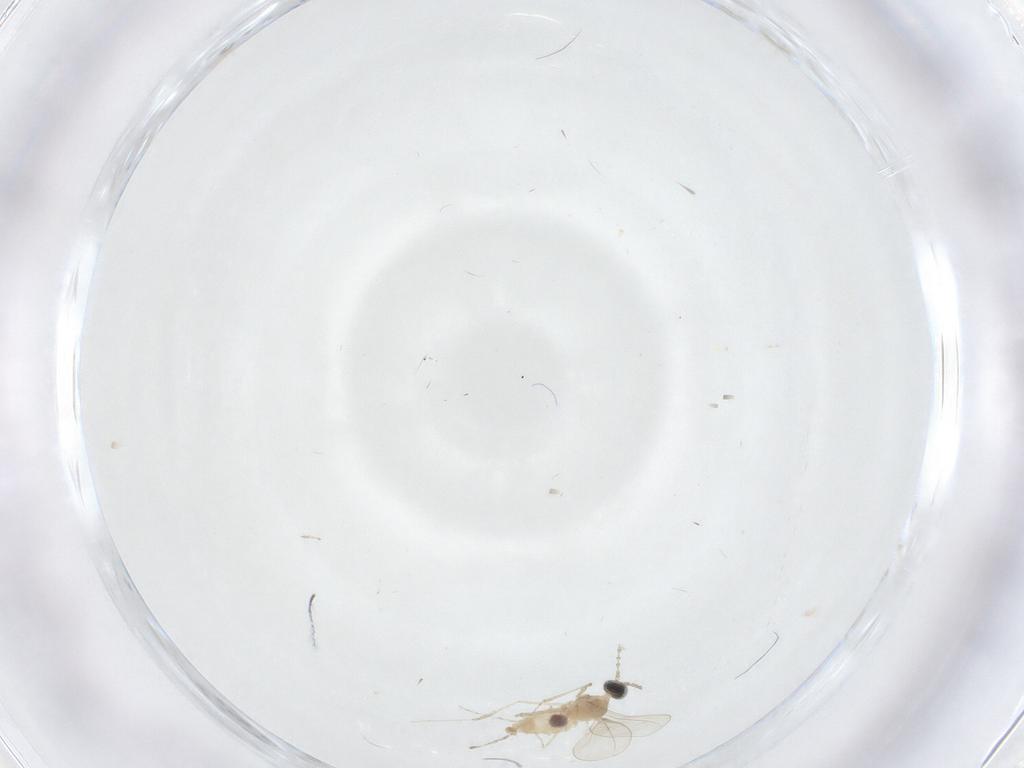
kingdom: Animalia
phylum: Arthropoda
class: Insecta
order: Diptera
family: Cecidomyiidae
